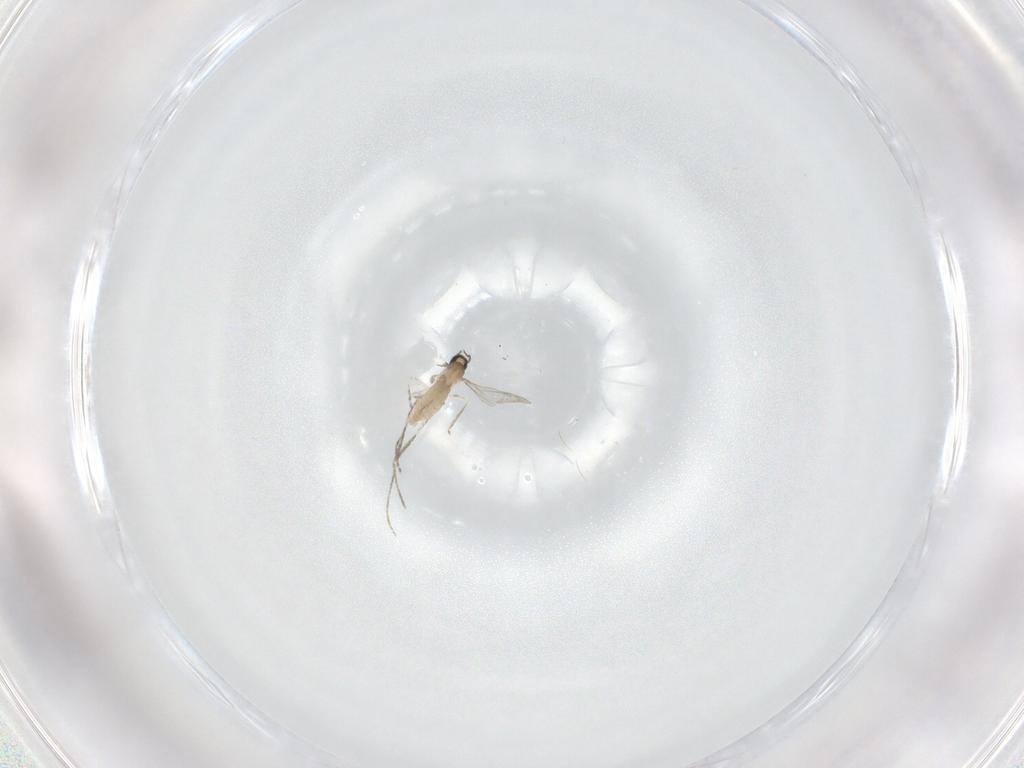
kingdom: Animalia
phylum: Arthropoda
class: Insecta
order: Diptera
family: Cecidomyiidae
